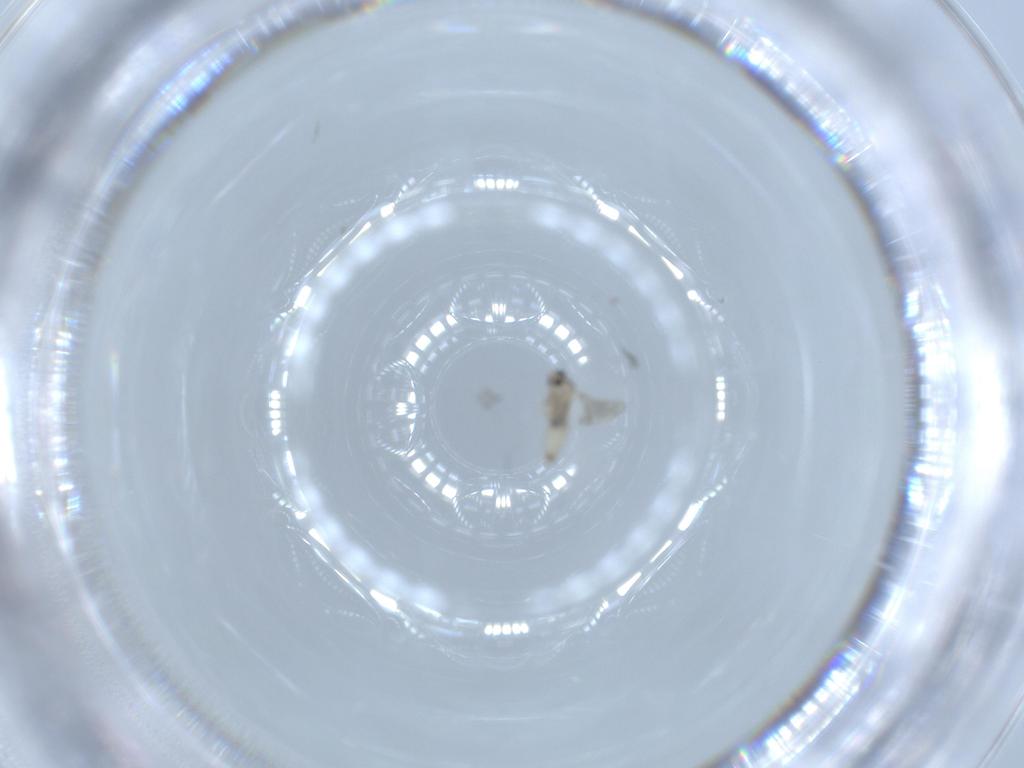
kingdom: Animalia
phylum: Arthropoda
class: Insecta
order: Diptera
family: Cecidomyiidae
